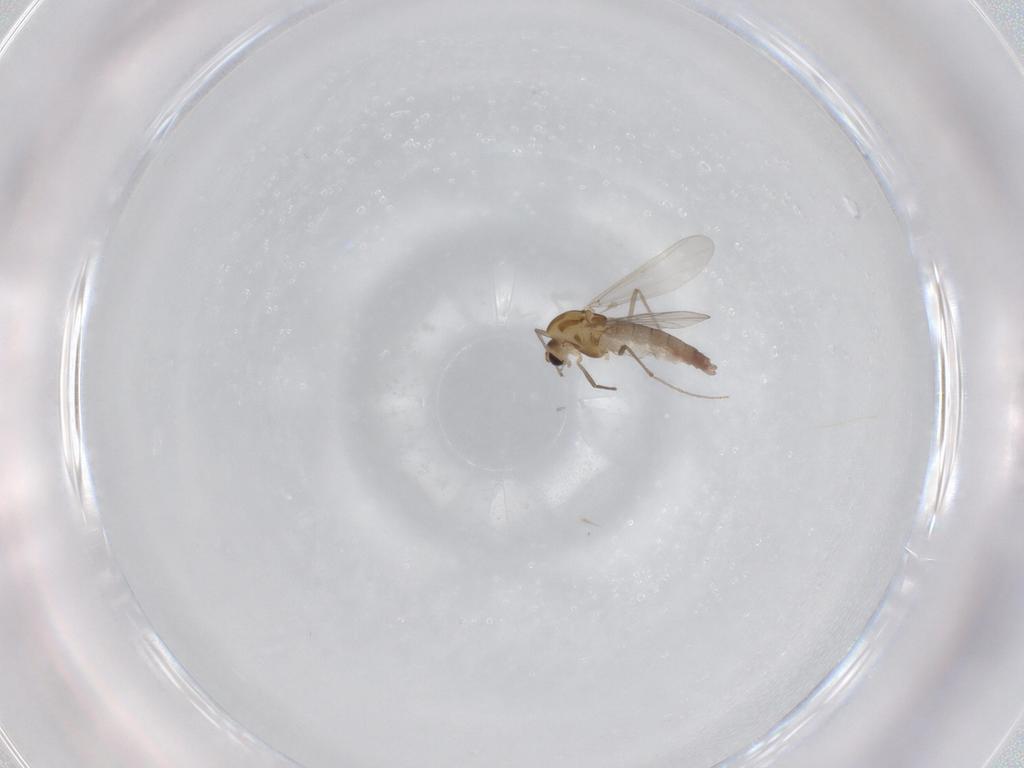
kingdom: Animalia
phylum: Arthropoda
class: Insecta
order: Diptera
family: Chironomidae
